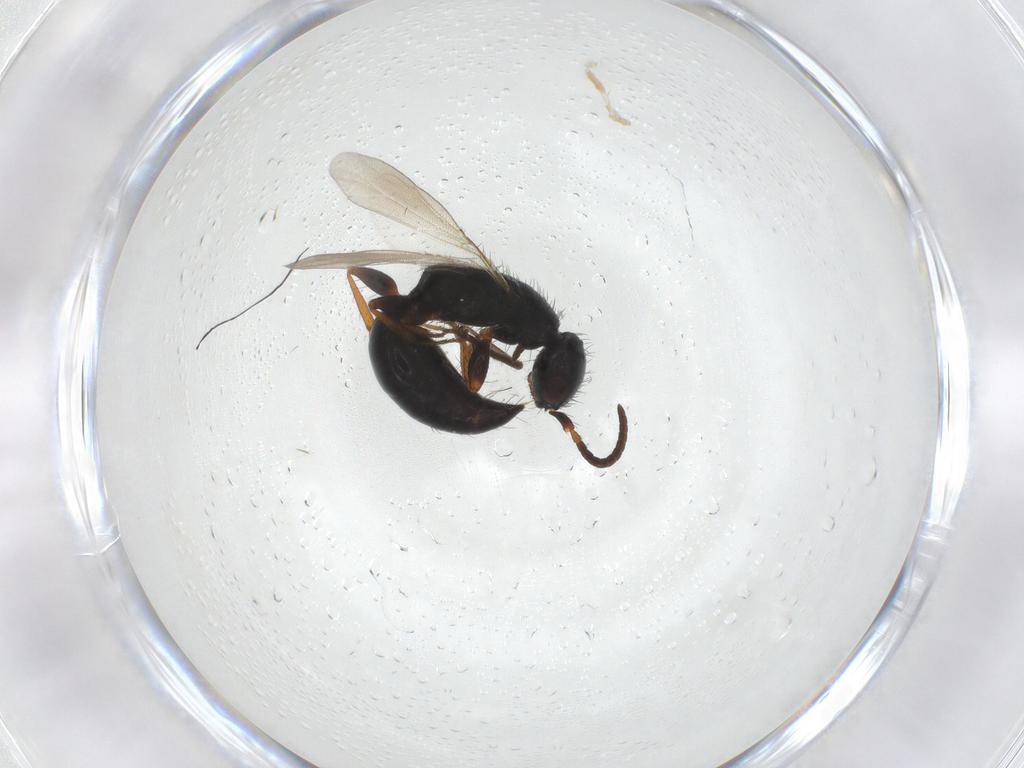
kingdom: Animalia
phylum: Arthropoda
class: Insecta
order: Hymenoptera
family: Bethylidae
